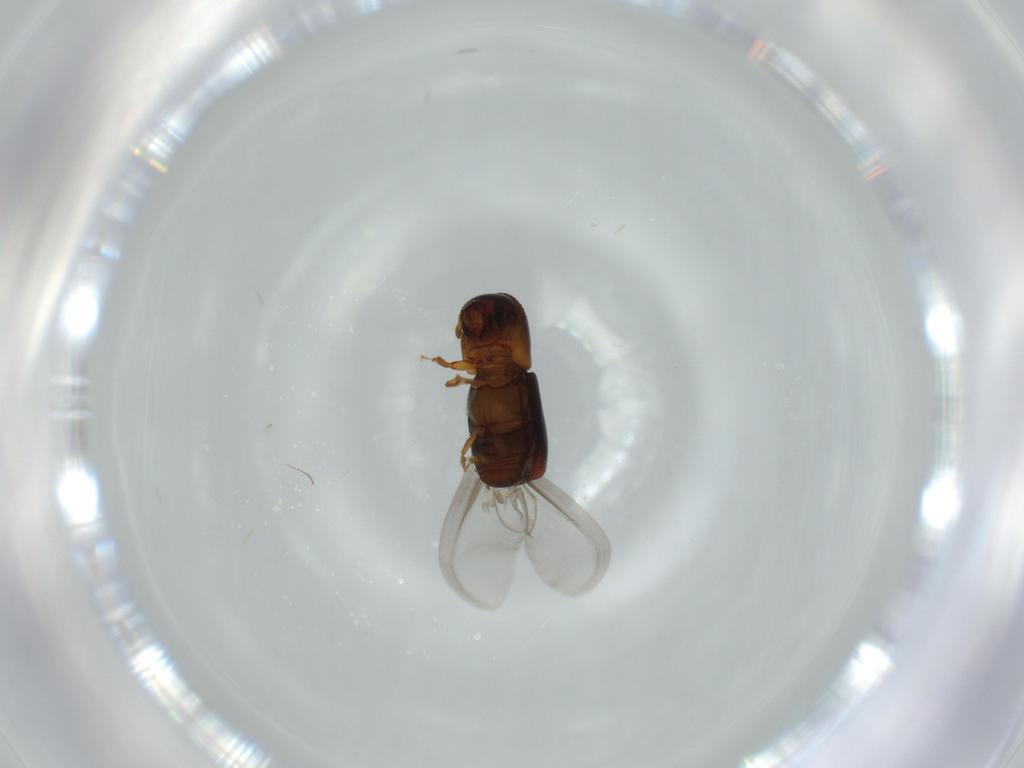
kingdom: Animalia
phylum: Arthropoda
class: Insecta
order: Coleoptera
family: Curculionidae
